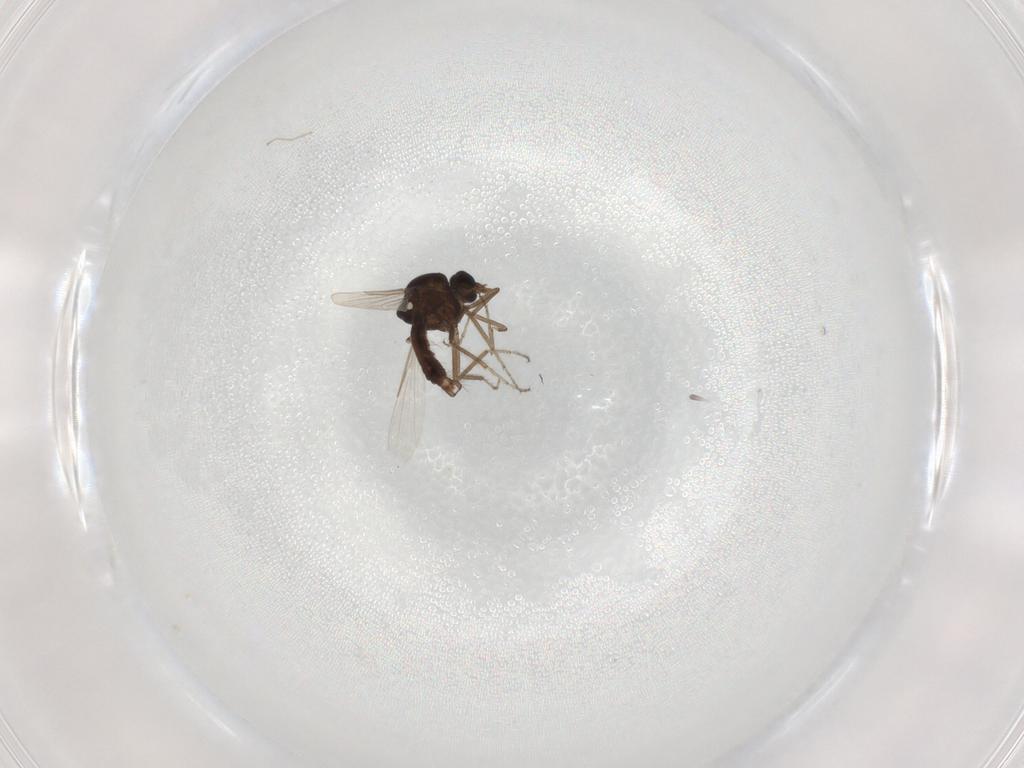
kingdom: Animalia
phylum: Arthropoda
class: Insecta
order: Diptera
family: Ceratopogonidae
